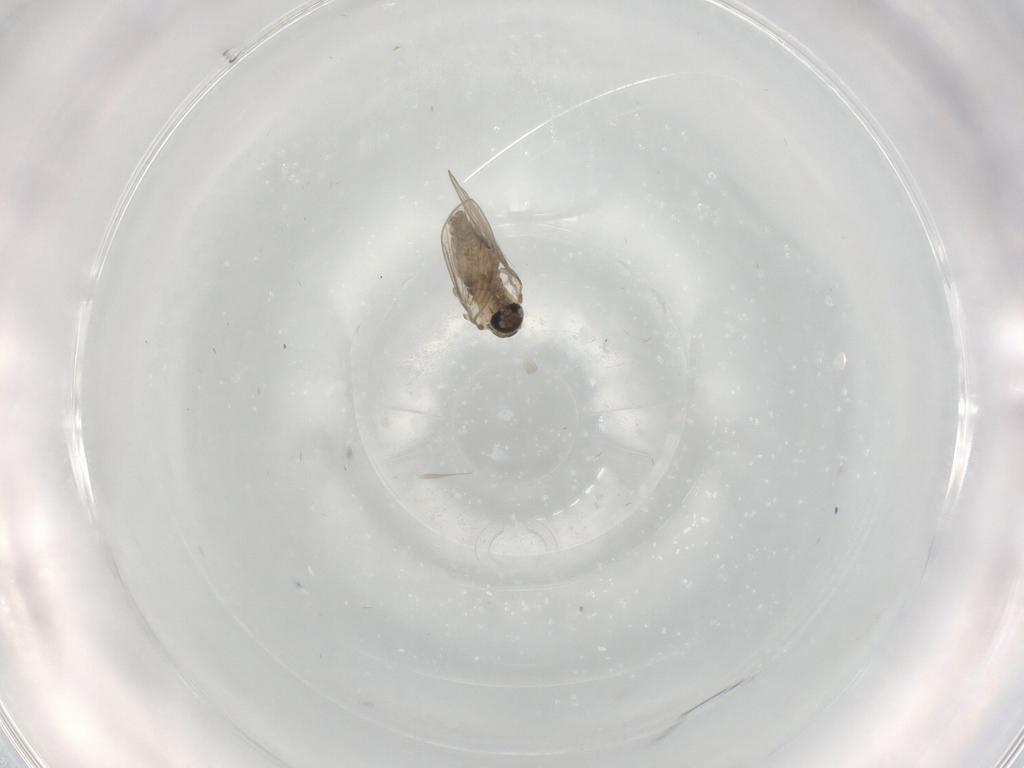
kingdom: Animalia
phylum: Arthropoda
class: Insecta
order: Diptera
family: Psychodidae
